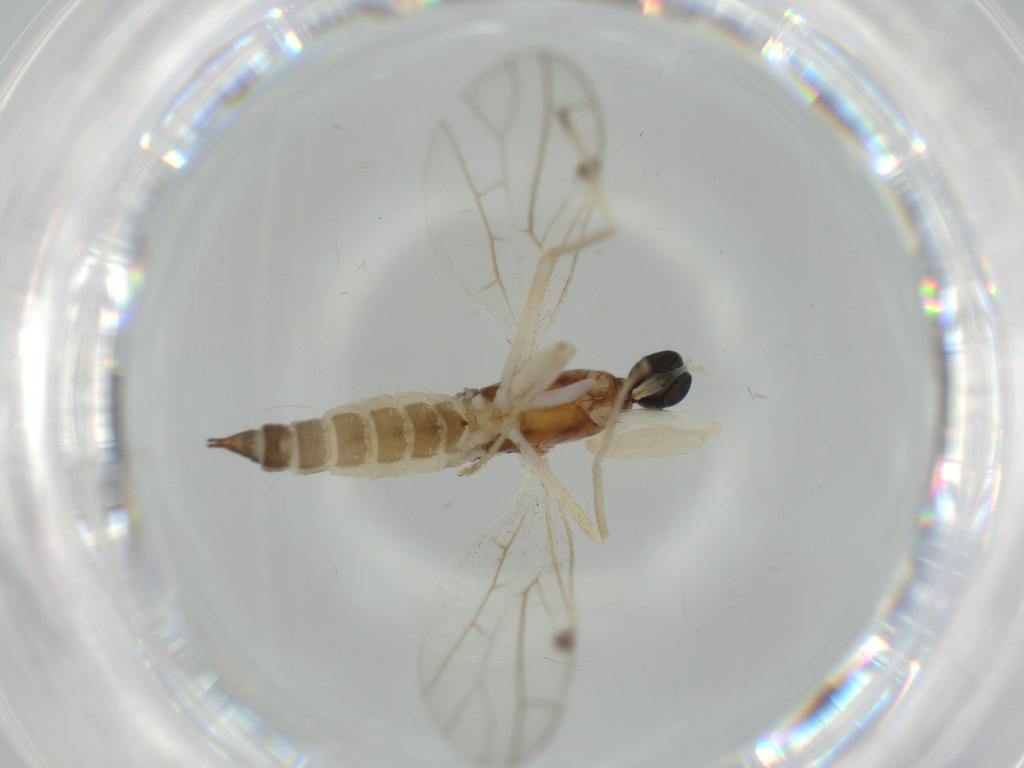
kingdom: Animalia
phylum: Arthropoda
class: Insecta
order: Diptera
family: Empididae
